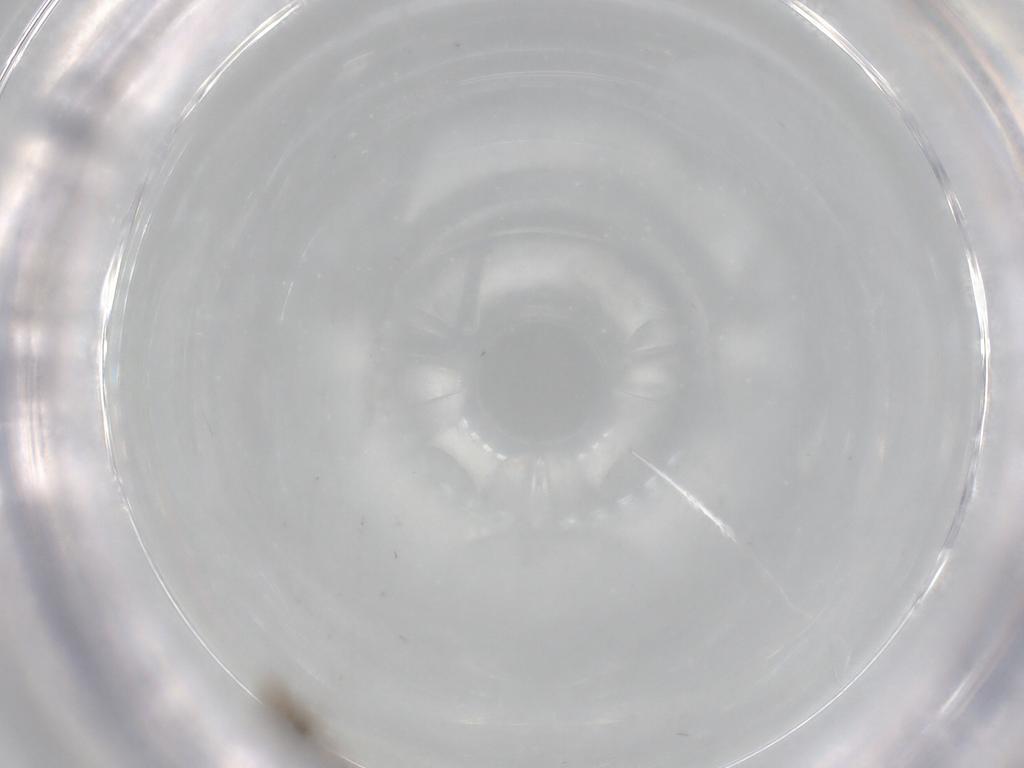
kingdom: Animalia
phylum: Arthropoda
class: Insecta
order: Diptera
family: Cecidomyiidae
